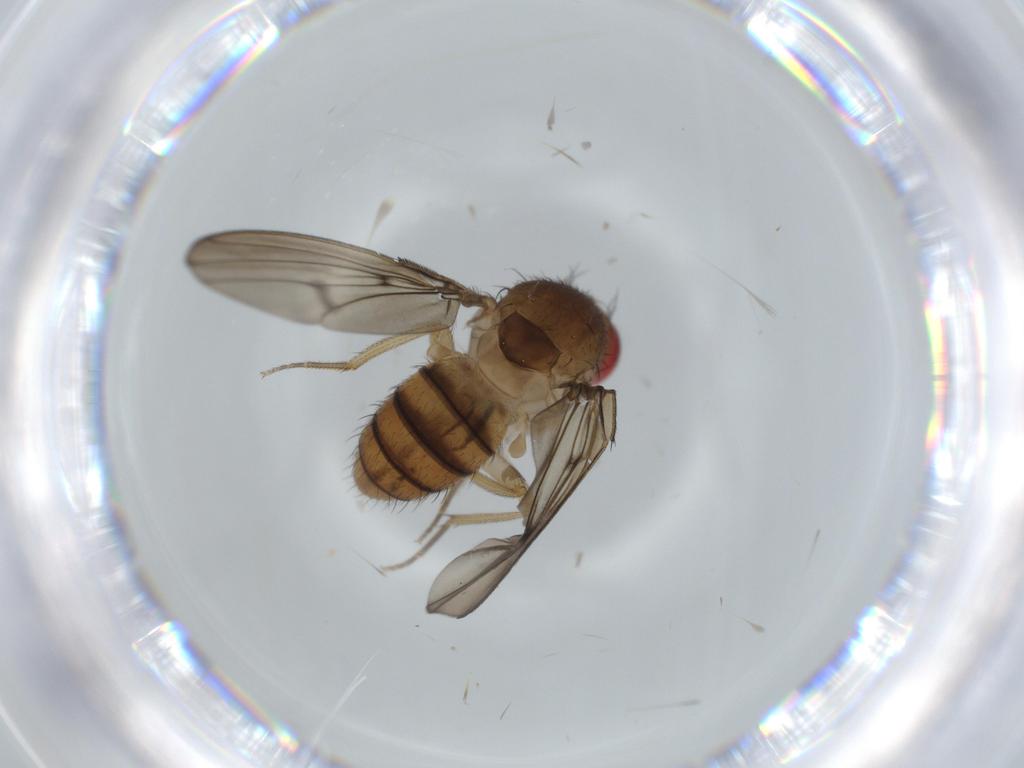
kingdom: Animalia
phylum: Arthropoda
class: Insecta
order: Diptera
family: Drosophilidae
